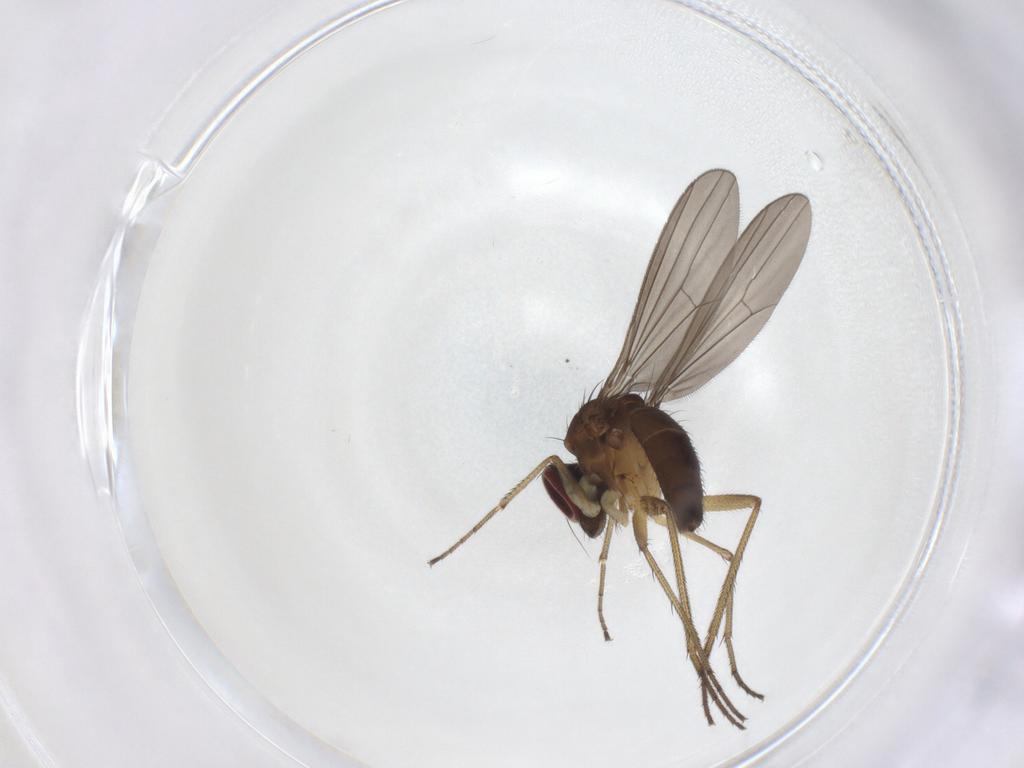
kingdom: Animalia
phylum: Arthropoda
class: Insecta
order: Diptera
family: Dolichopodidae
